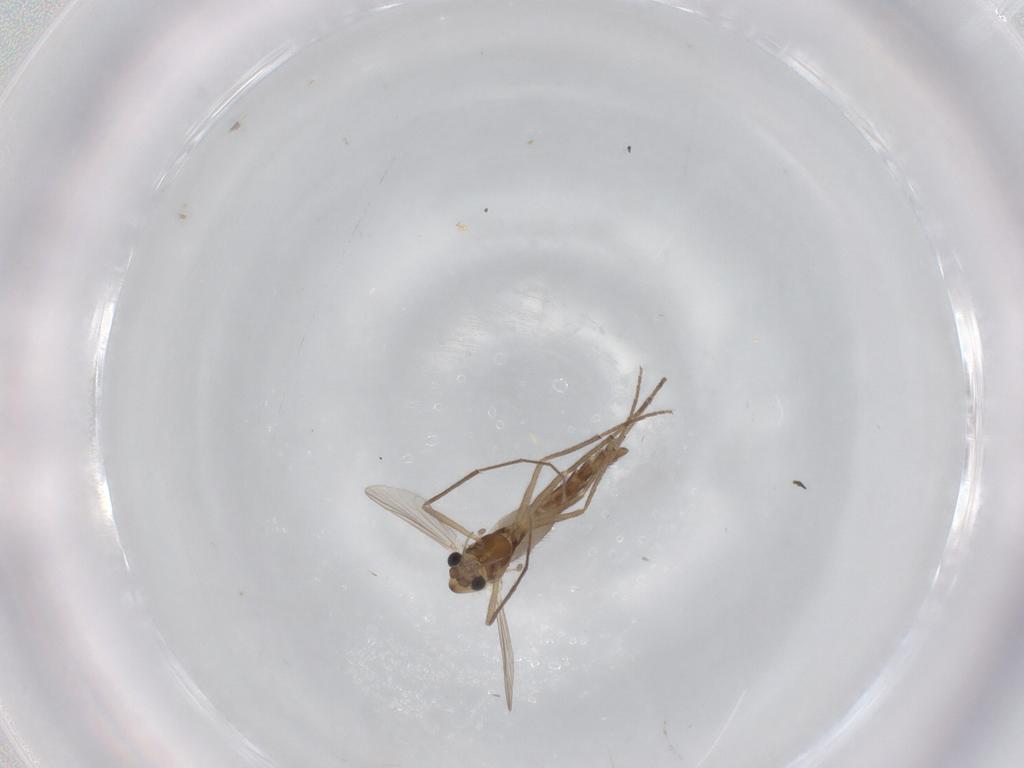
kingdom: Animalia
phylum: Arthropoda
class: Insecta
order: Diptera
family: Chironomidae
